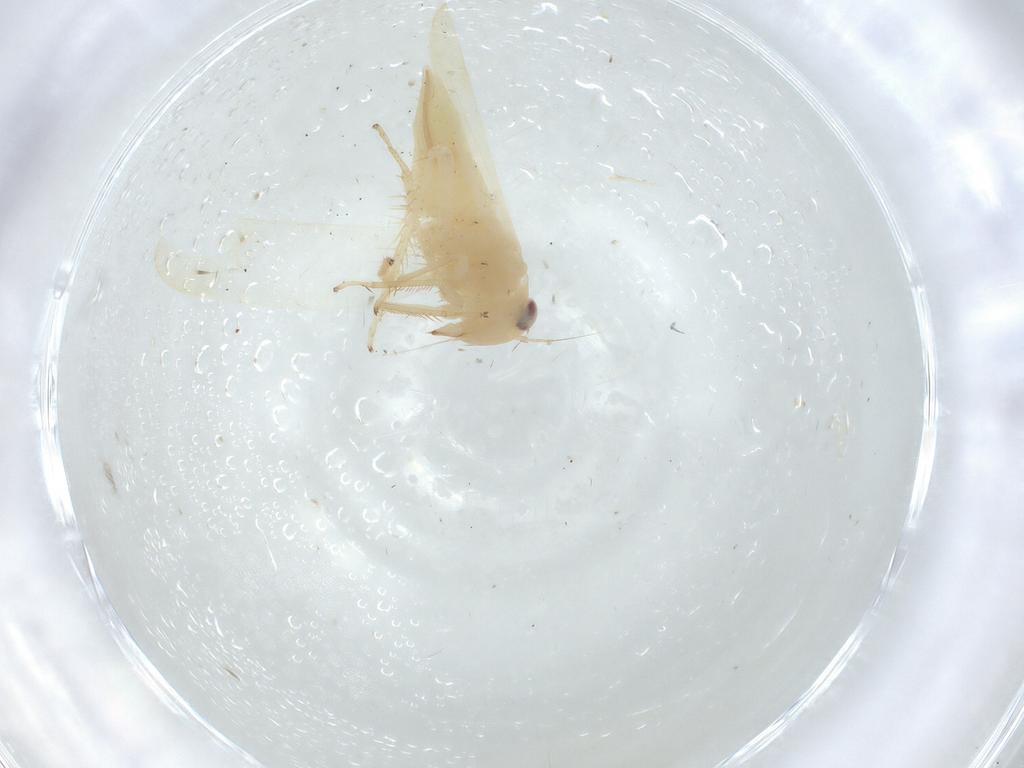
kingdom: Animalia
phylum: Arthropoda
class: Insecta
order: Hemiptera
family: Cicadellidae
